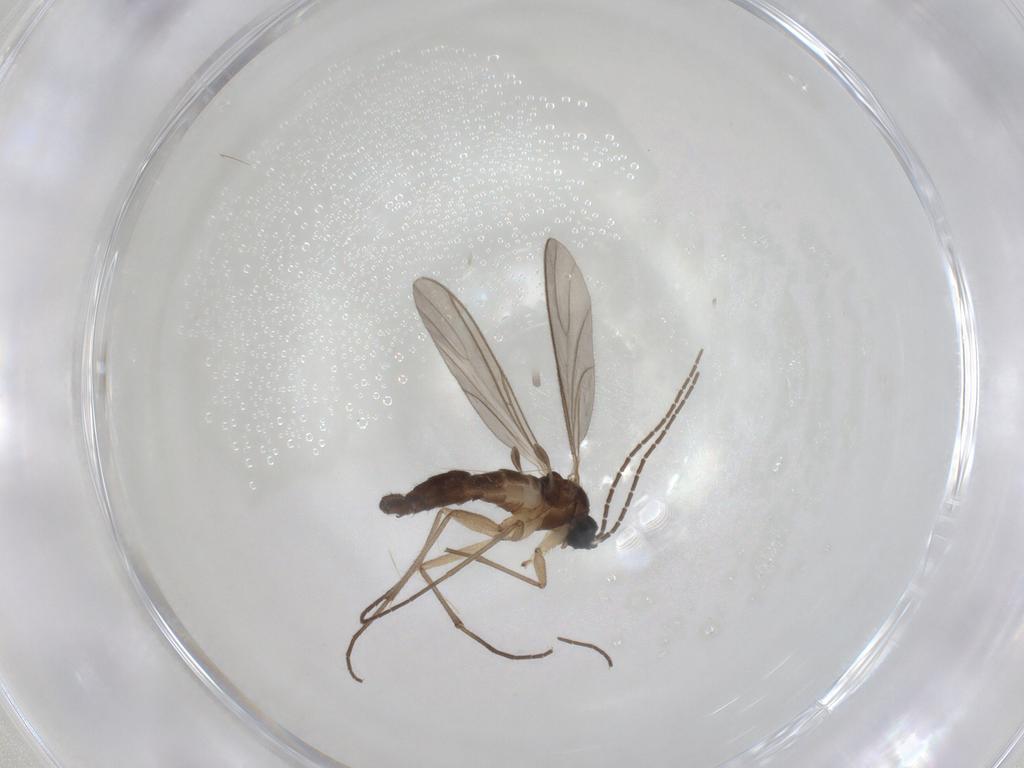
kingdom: Animalia
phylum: Arthropoda
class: Insecta
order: Diptera
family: Sciaridae
